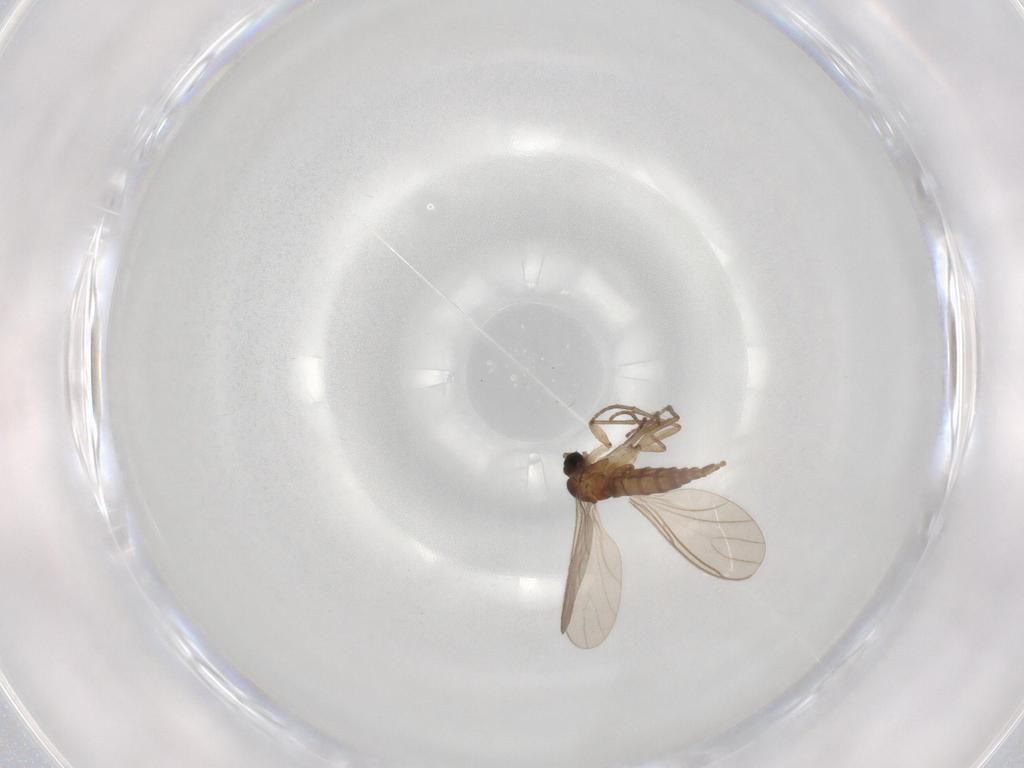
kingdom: Animalia
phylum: Arthropoda
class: Insecta
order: Diptera
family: Sciaridae
